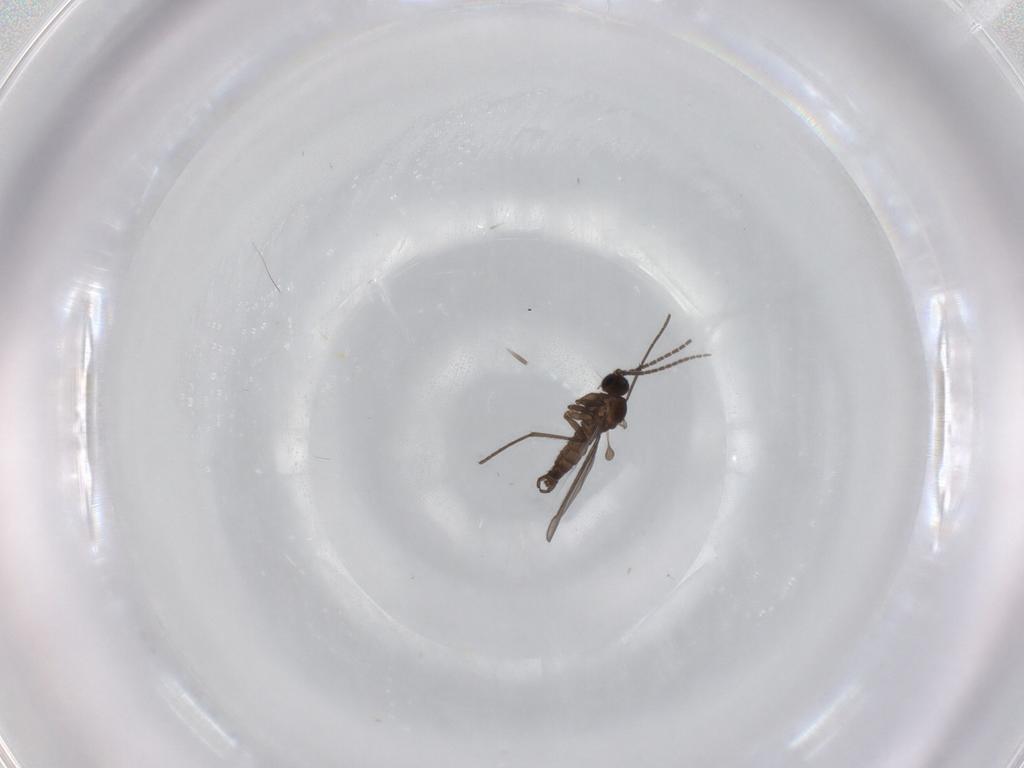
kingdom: Animalia
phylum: Arthropoda
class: Insecta
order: Diptera
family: Sciaridae
